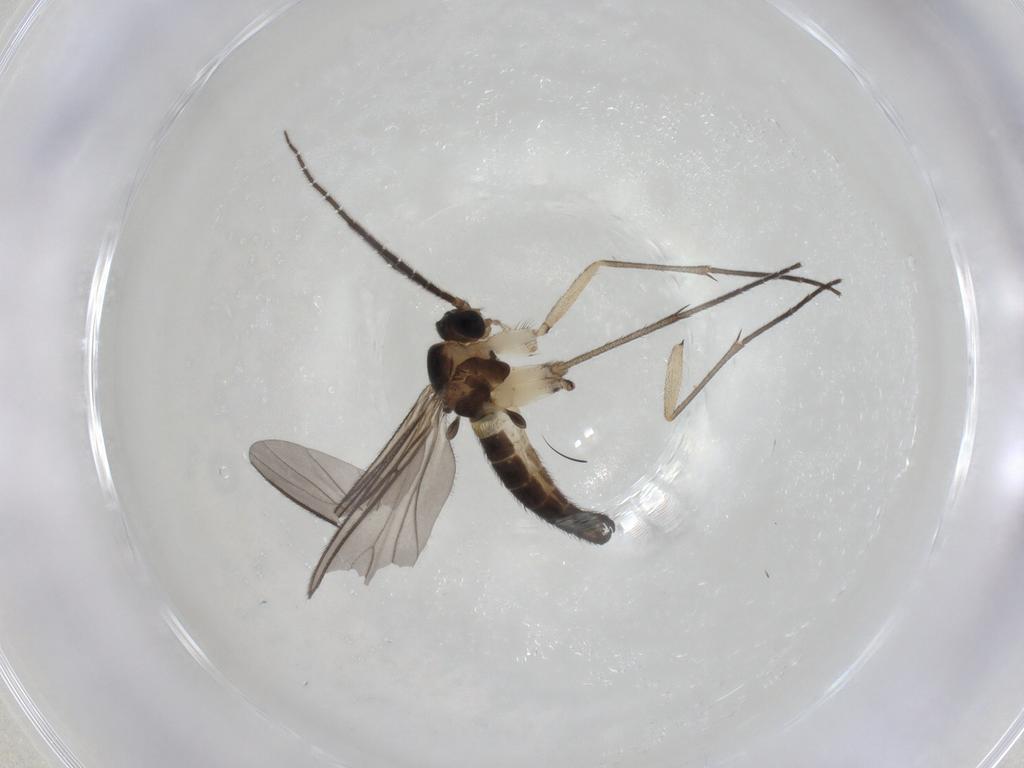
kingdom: Animalia
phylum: Arthropoda
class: Insecta
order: Diptera
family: Sciaridae
